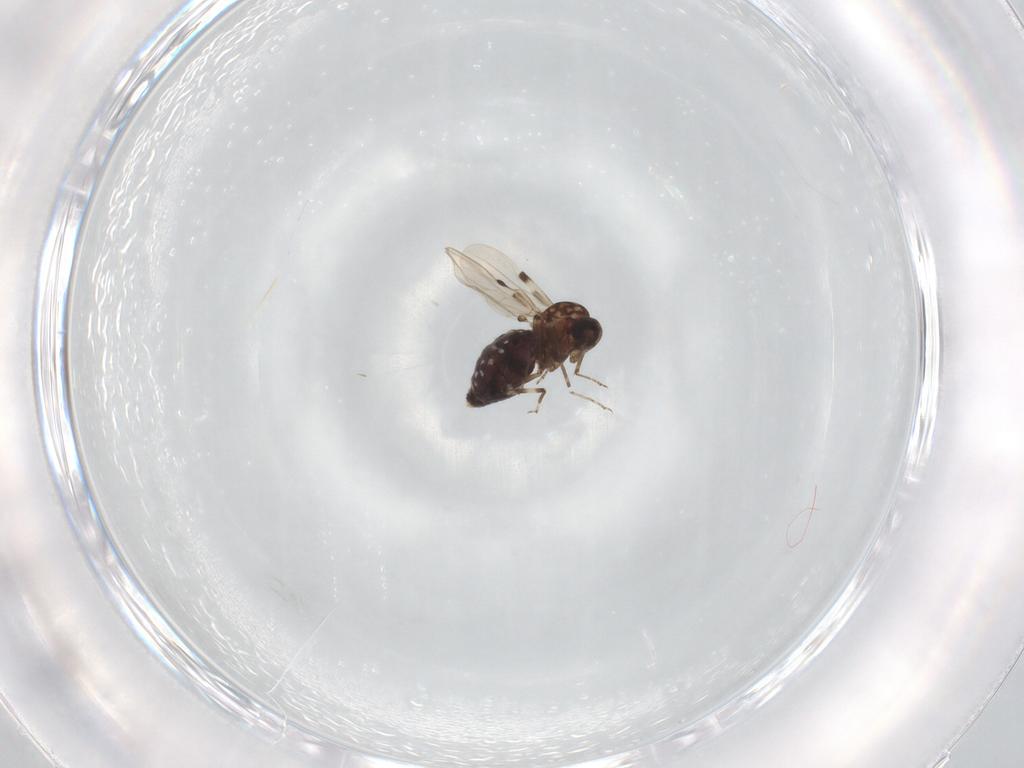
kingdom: Animalia
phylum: Arthropoda
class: Insecta
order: Diptera
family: Ceratopogonidae
